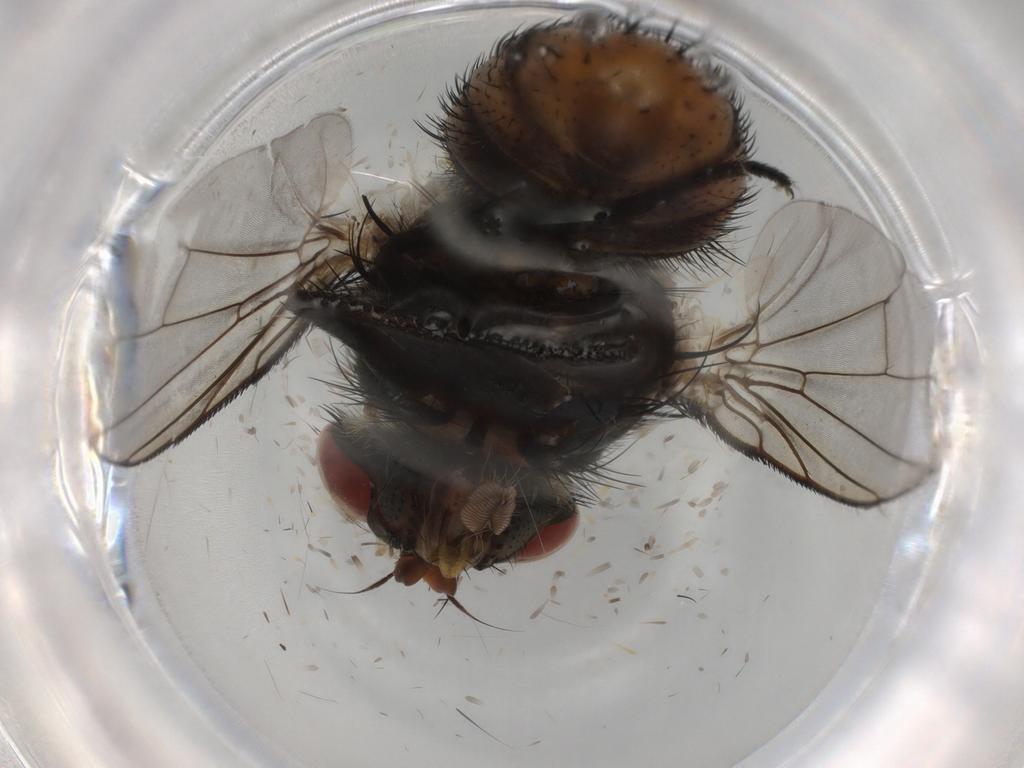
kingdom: Animalia
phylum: Arthropoda
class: Insecta
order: Diptera
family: Tachinidae
